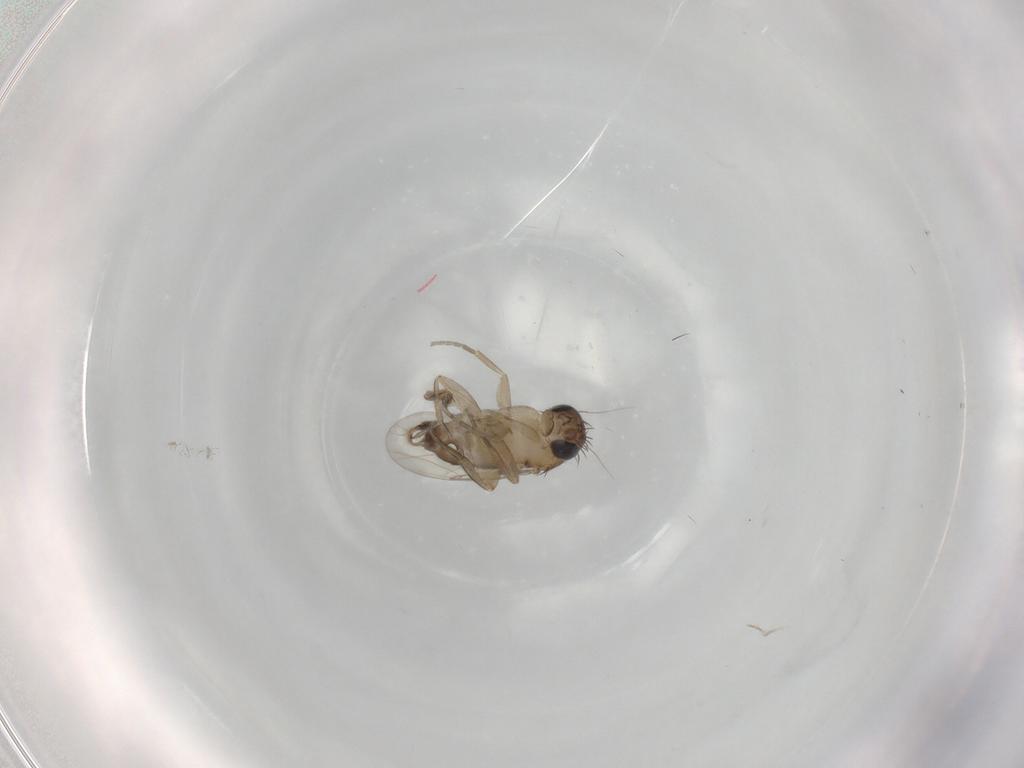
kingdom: Animalia
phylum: Arthropoda
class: Insecta
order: Diptera
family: Phoridae
